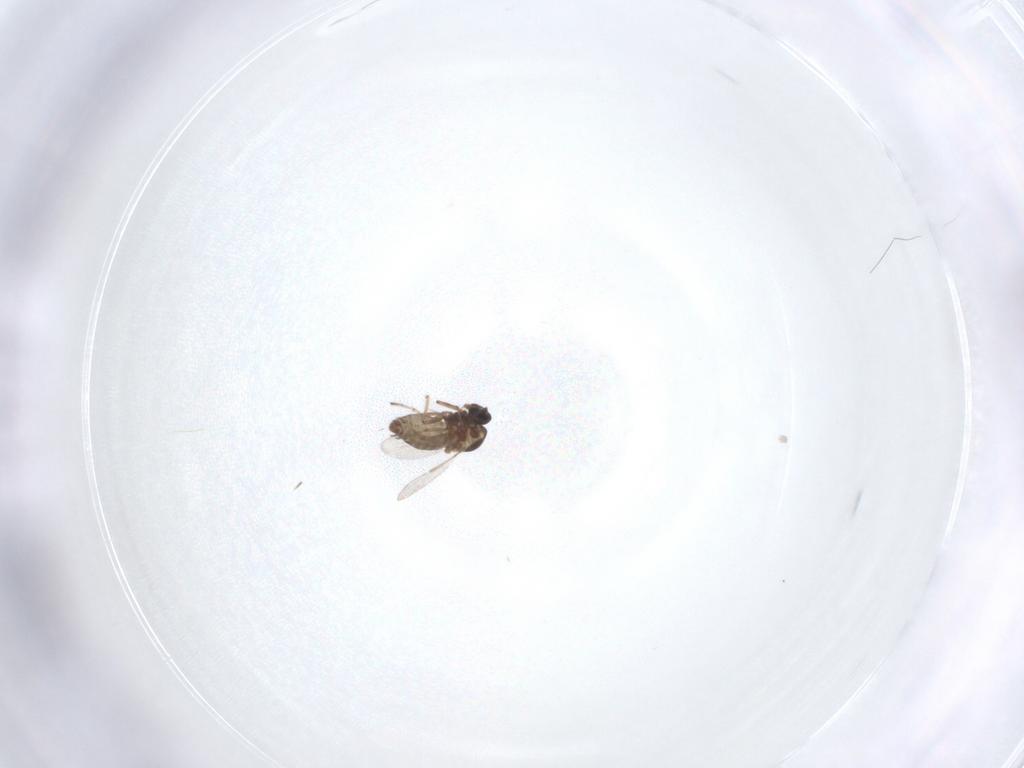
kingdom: Animalia
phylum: Arthropoda
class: Insecta
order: Diptera
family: Ceratopogonidae
